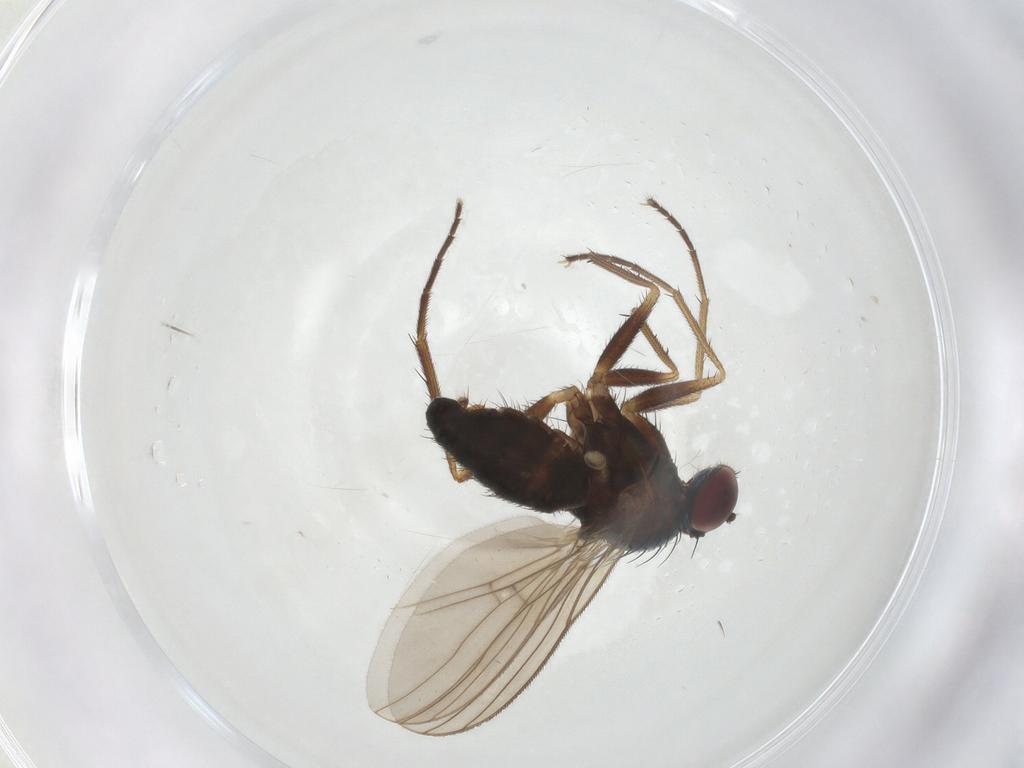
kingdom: Animalia
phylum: Arthropoda
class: Insecta
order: Diptera
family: Dolichopodidae
